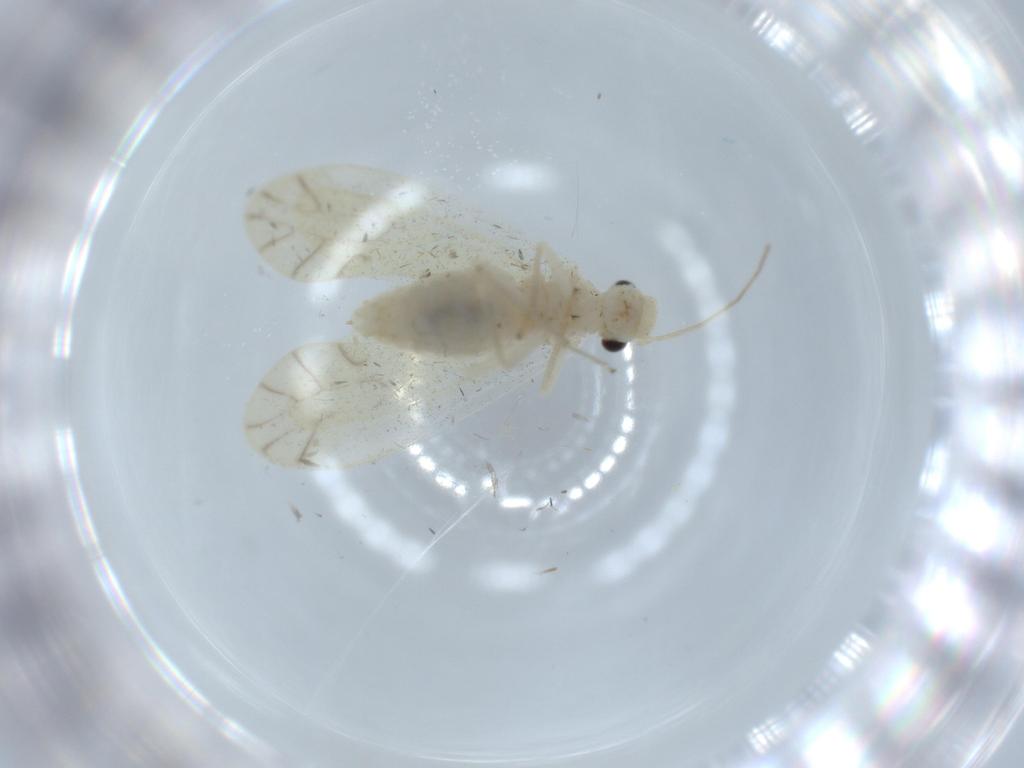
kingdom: Animalia
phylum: Arthropoda
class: Insecta
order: Psocodea
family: Caeciliusidae
